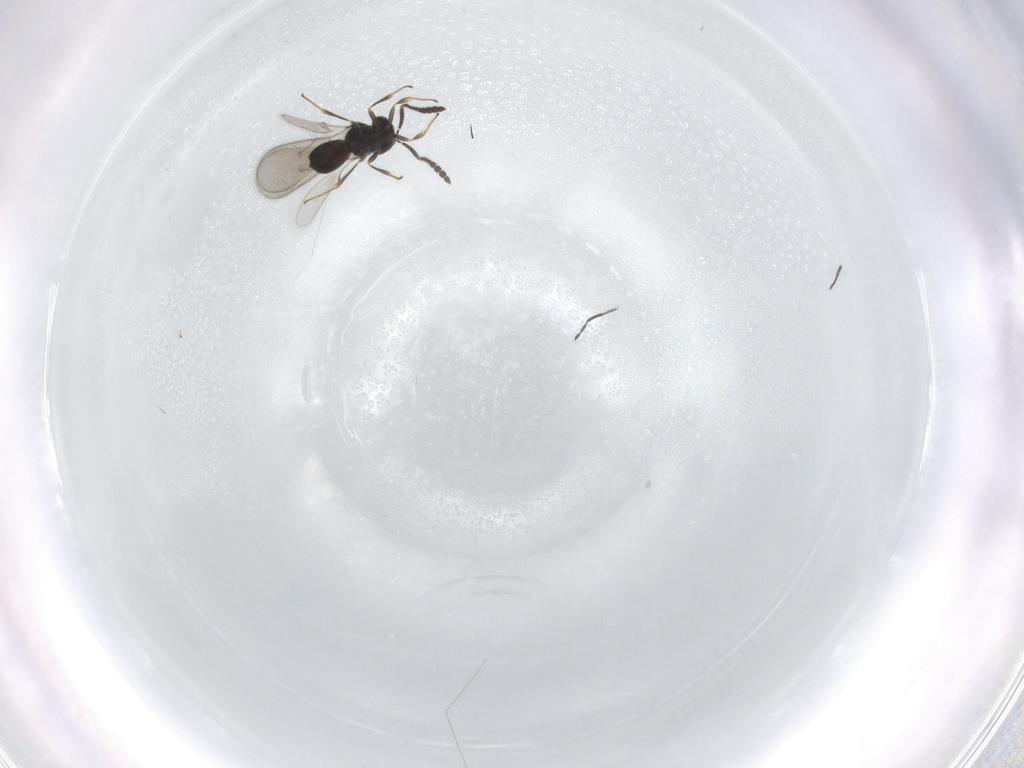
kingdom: Animalia
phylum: Arthropoda
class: Insecta
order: Hymenoptera
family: Scelionidae
